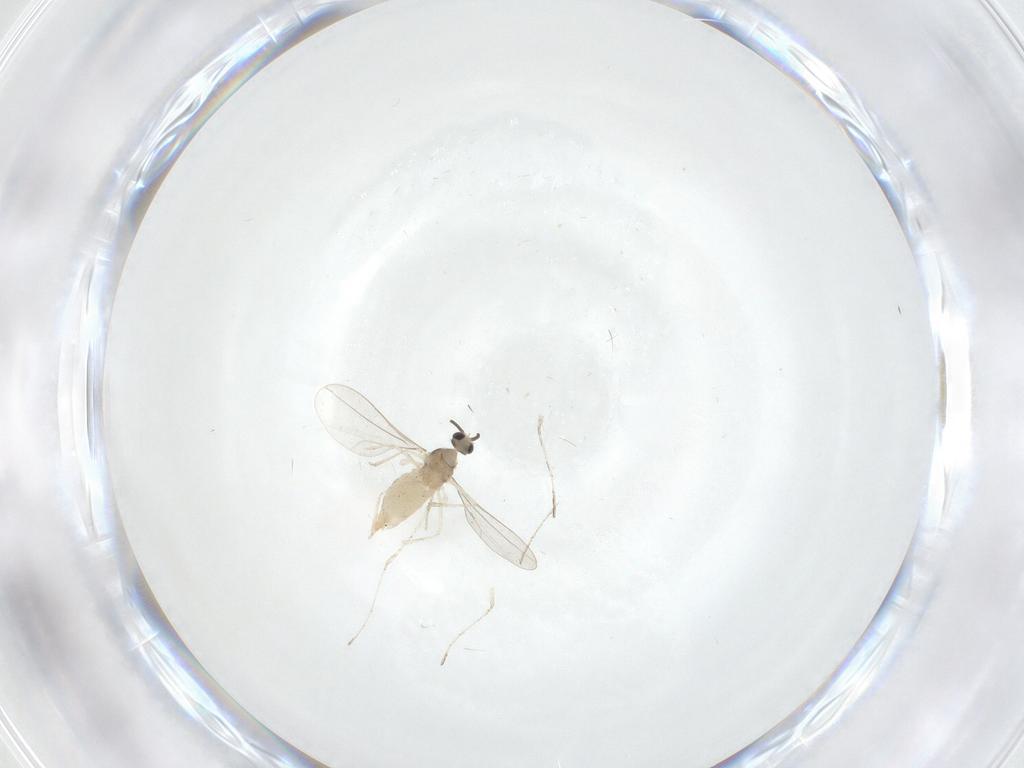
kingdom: Animalia
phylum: Arthropoda
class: Insecta
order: Diptera
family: Cecidomyiidae
